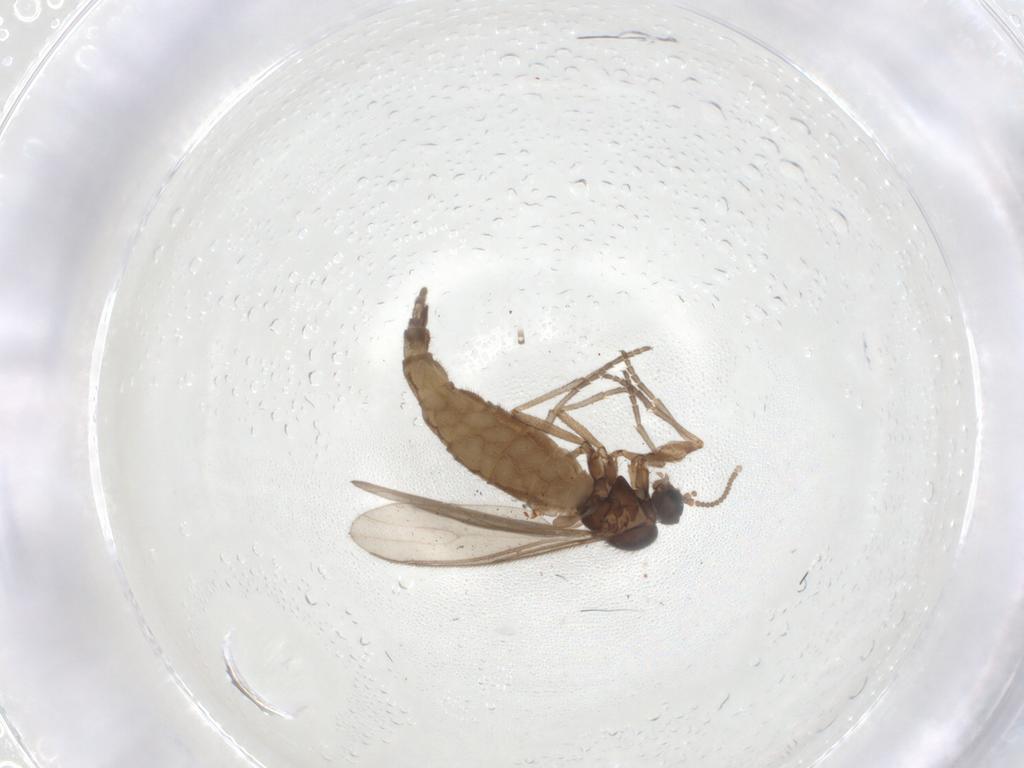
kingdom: Animalia
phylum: Arthropoda
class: Insecta
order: Diptera
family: Sciaridae
